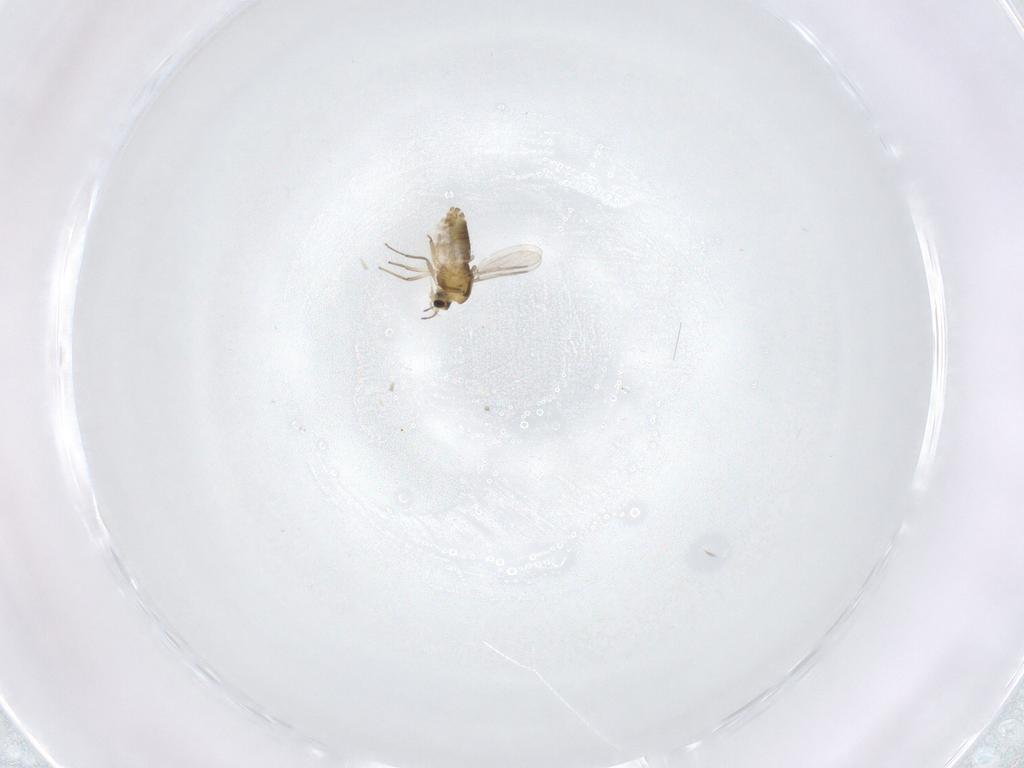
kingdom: Animalia
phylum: Arthropoda
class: Insecta
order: Diptera
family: Chironomidae
